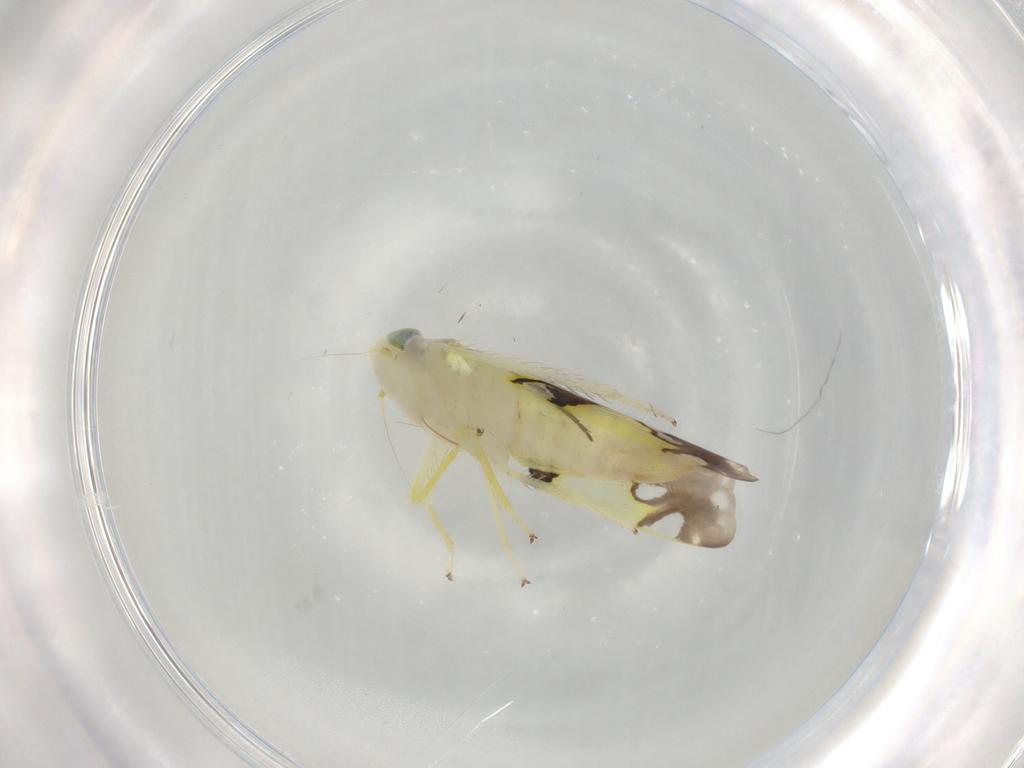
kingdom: Animalia
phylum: Arthropoda
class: Insecta
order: Hemiptera
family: Cicadellidae
